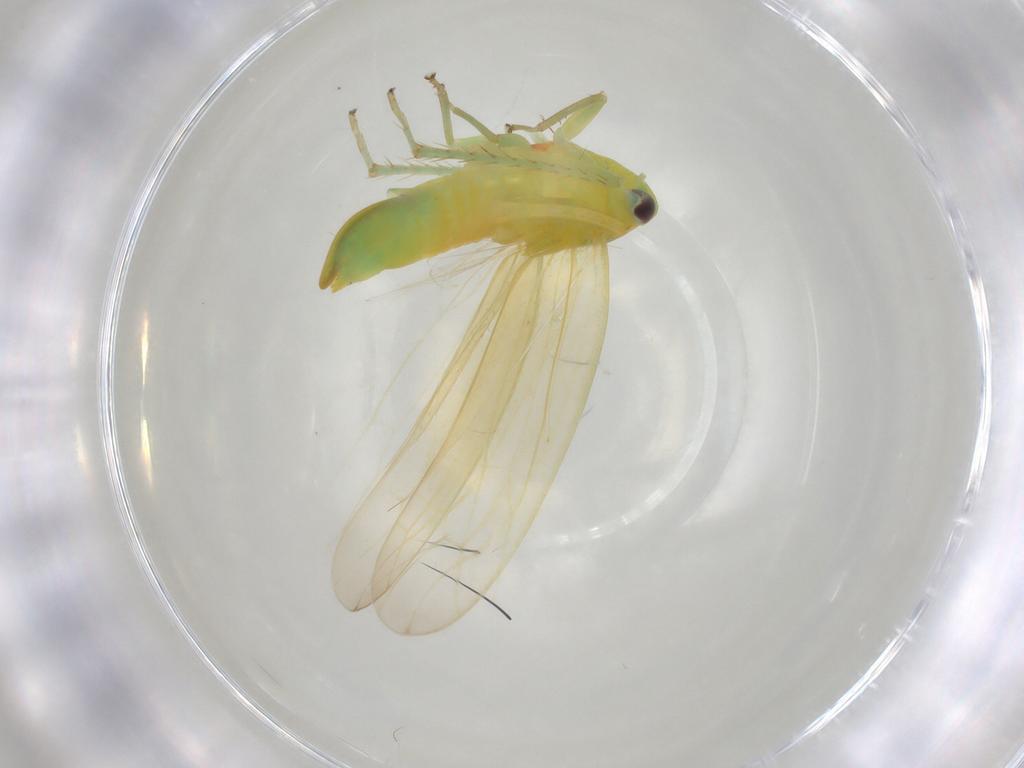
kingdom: Animalia
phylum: Arthropoda
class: Insecta
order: Hemiptera
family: Cicadellidae
